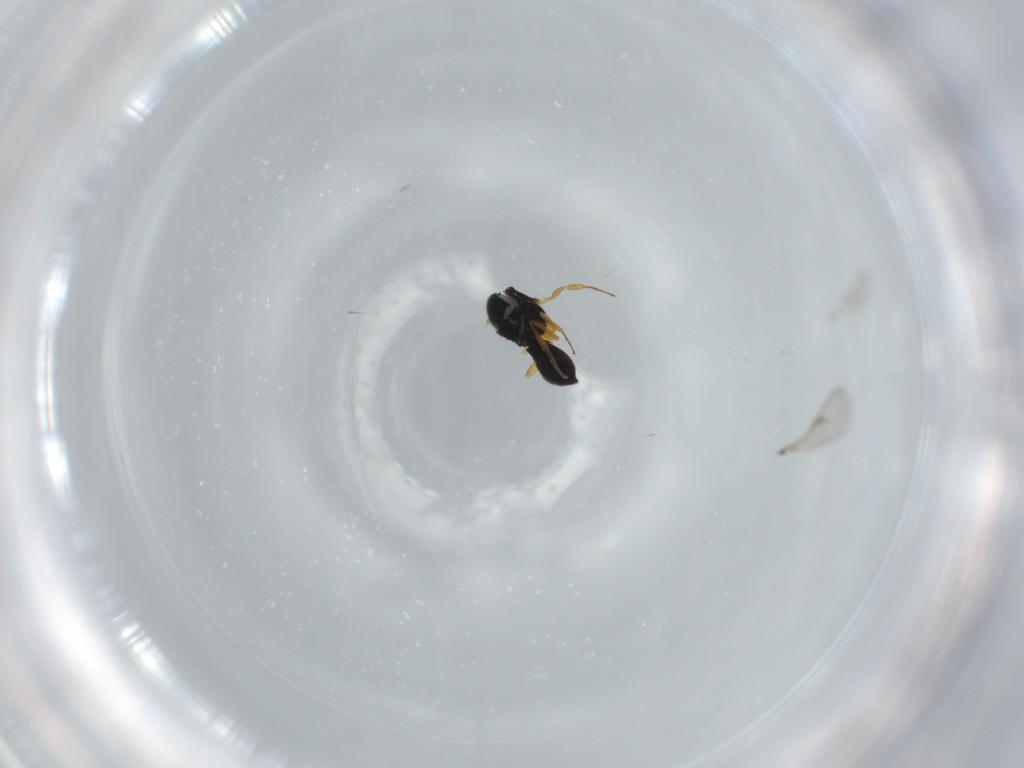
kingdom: Animalia
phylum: Arthropoda
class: Insecta
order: Hymenoptera
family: Scelionidae
